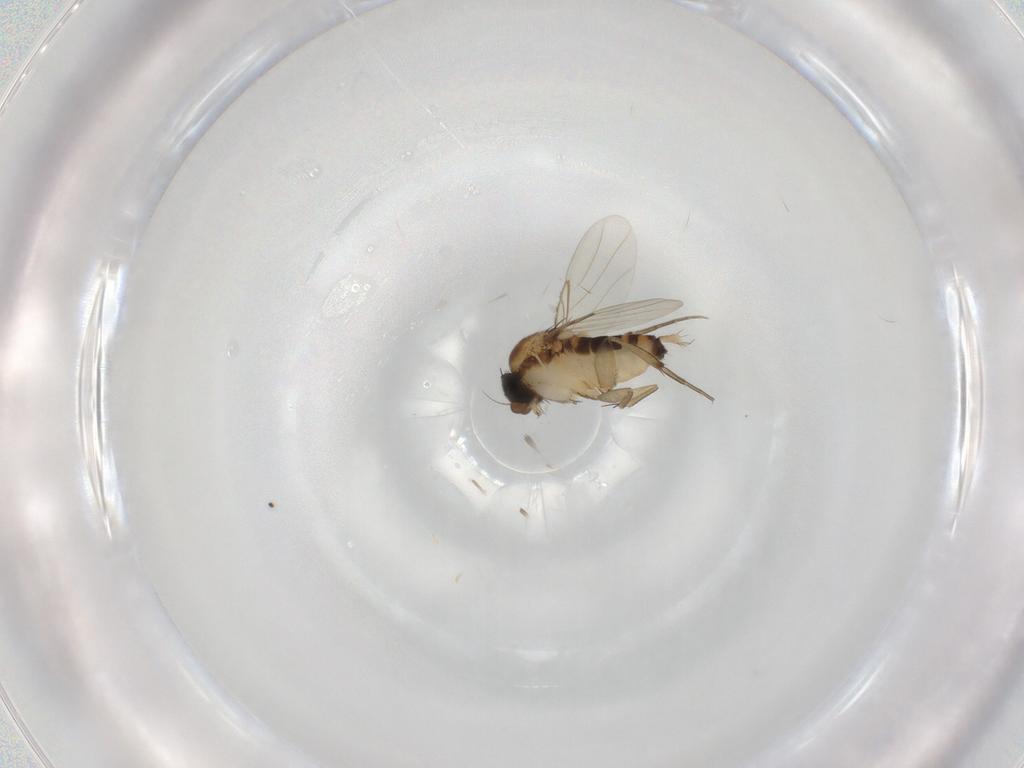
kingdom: Animalia
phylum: Arthropoda
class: Insecta
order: Diptera
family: Phoridae
